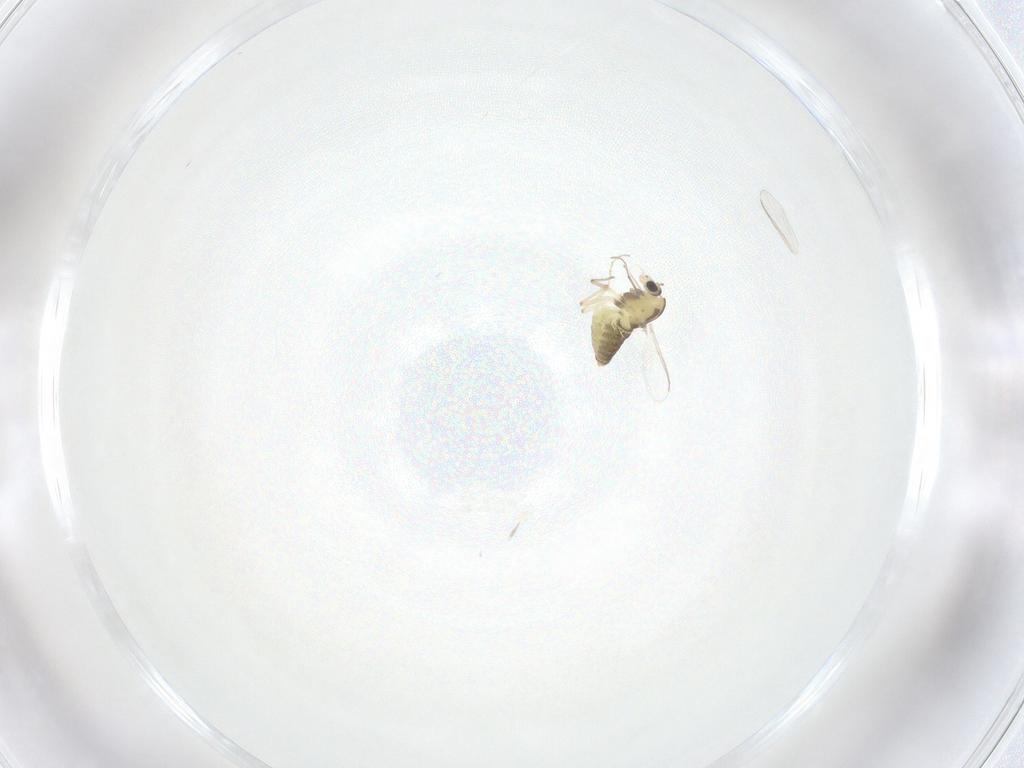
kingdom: Animalia
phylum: Arthropoda
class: Insecta
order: Diptera
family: Chironomidae
